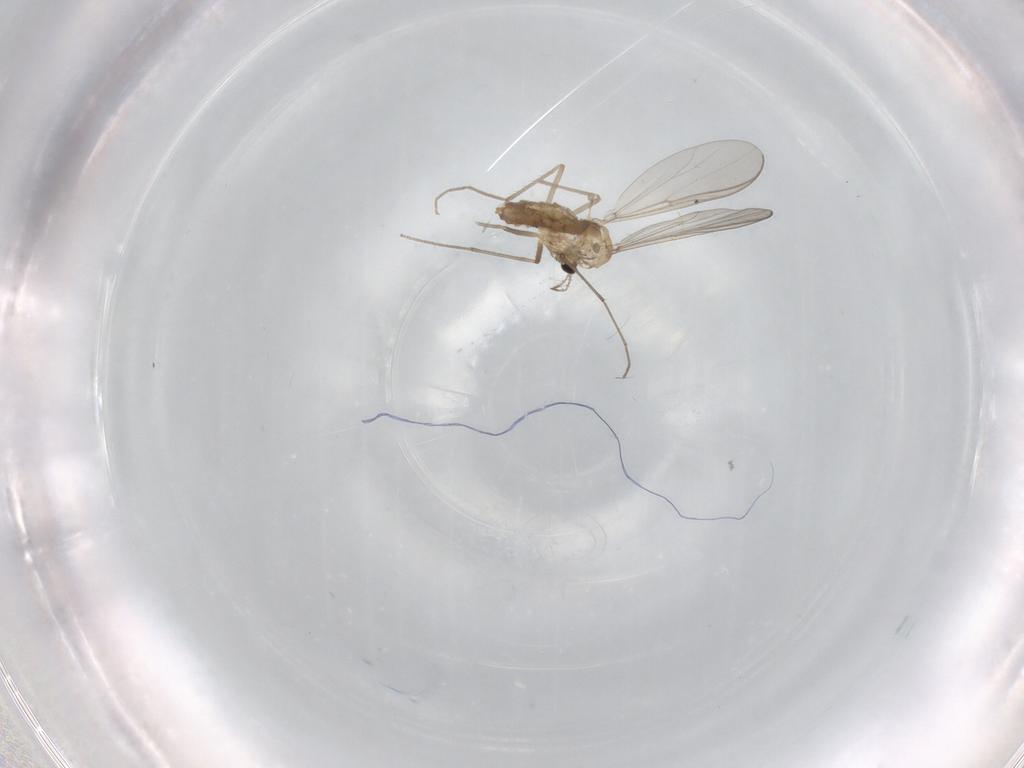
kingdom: Animalia
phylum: Arthropoda
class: Insecta
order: Diptera
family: Chironomidae
